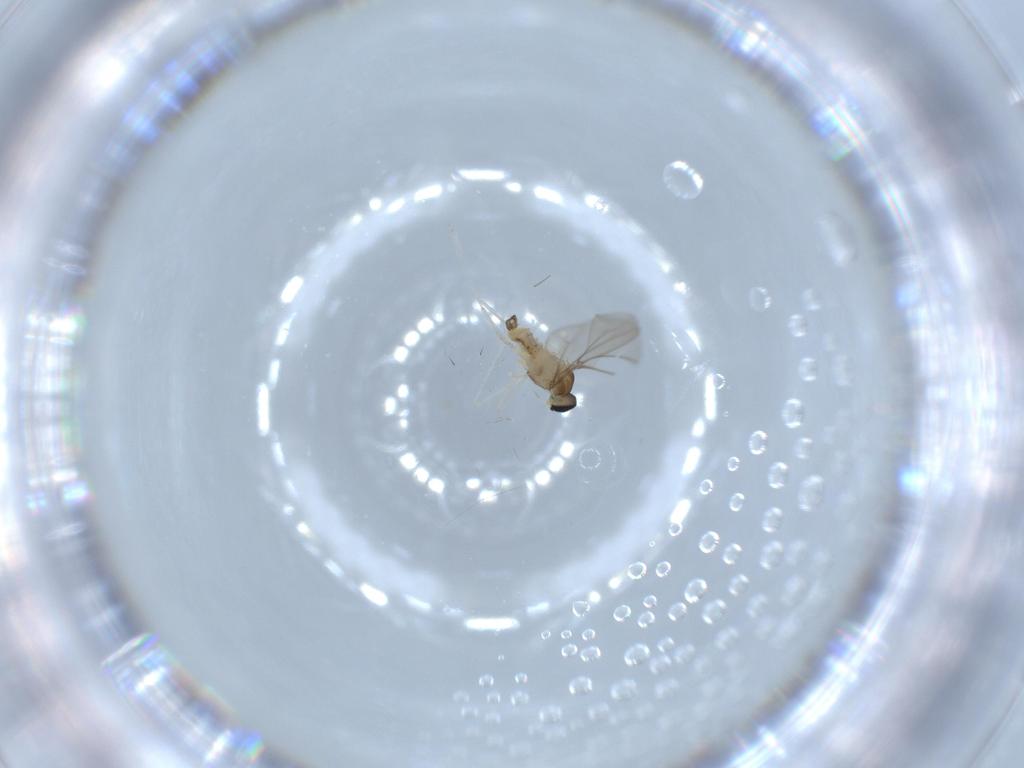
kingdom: Animalia
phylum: Arthropoda
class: Insecta
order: Diptera
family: Cecidomyiidae
